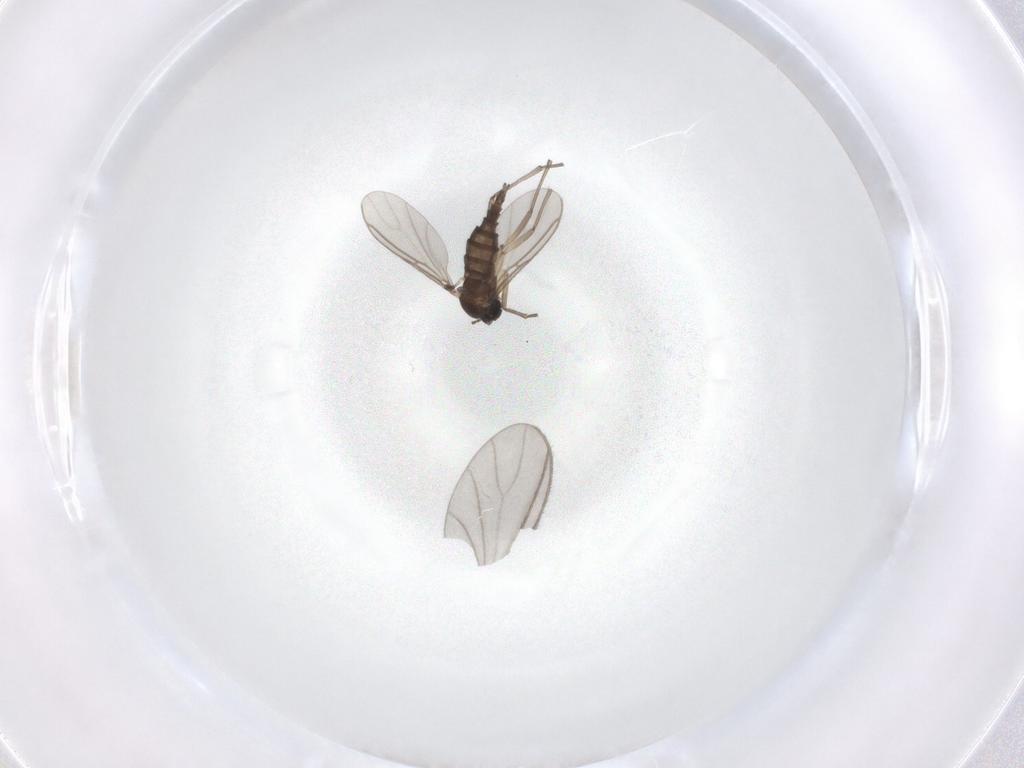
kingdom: Animalia
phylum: Arthropoda
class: Insecta
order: Diptera
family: Sciaridae
